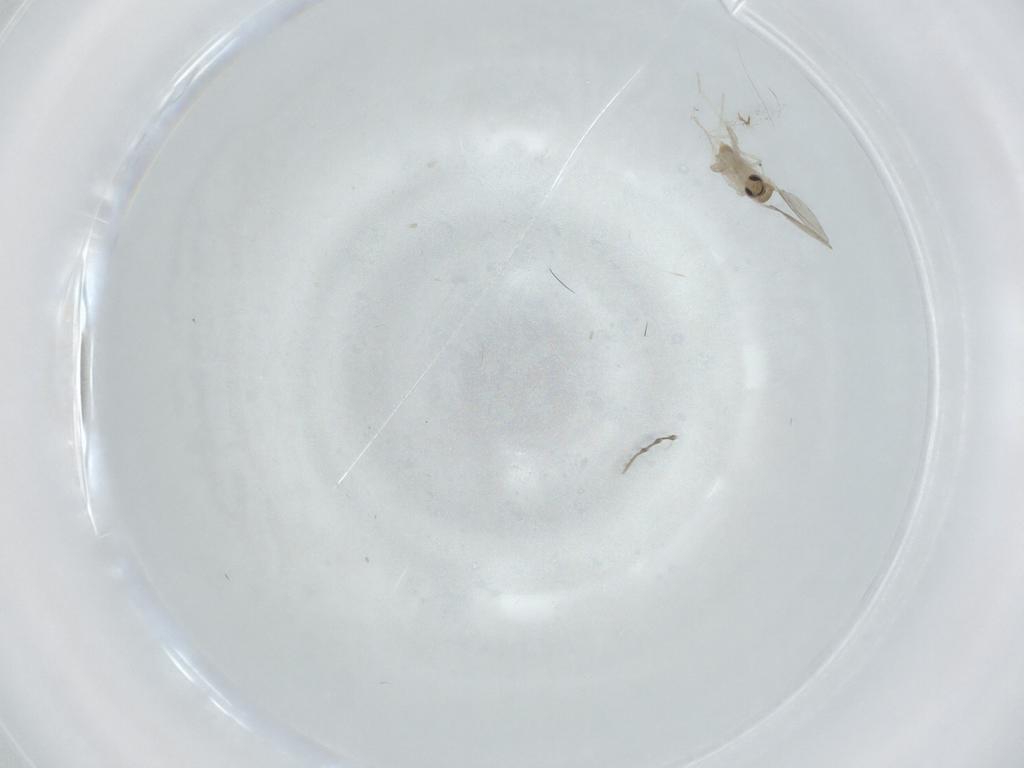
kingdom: Animalia
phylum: Arthropoda
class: Insecta
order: Diptera
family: Cecidomyiidae
